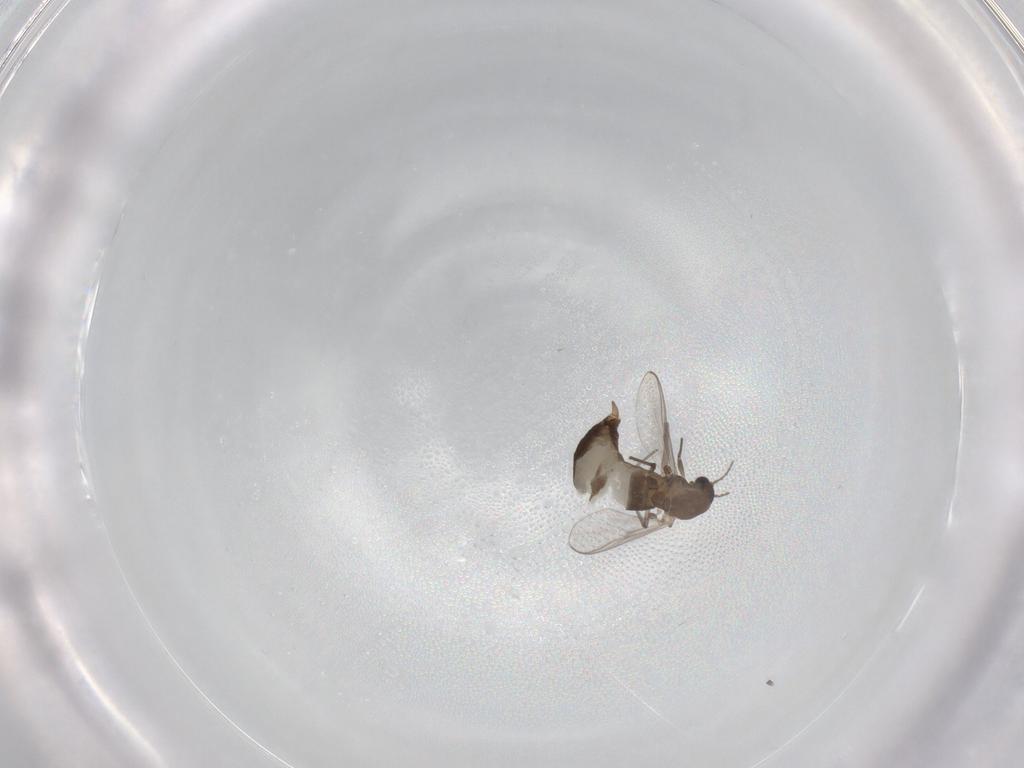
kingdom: Animalia
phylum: Arthropoda
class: Insecta
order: Diptera
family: Chironomidae
